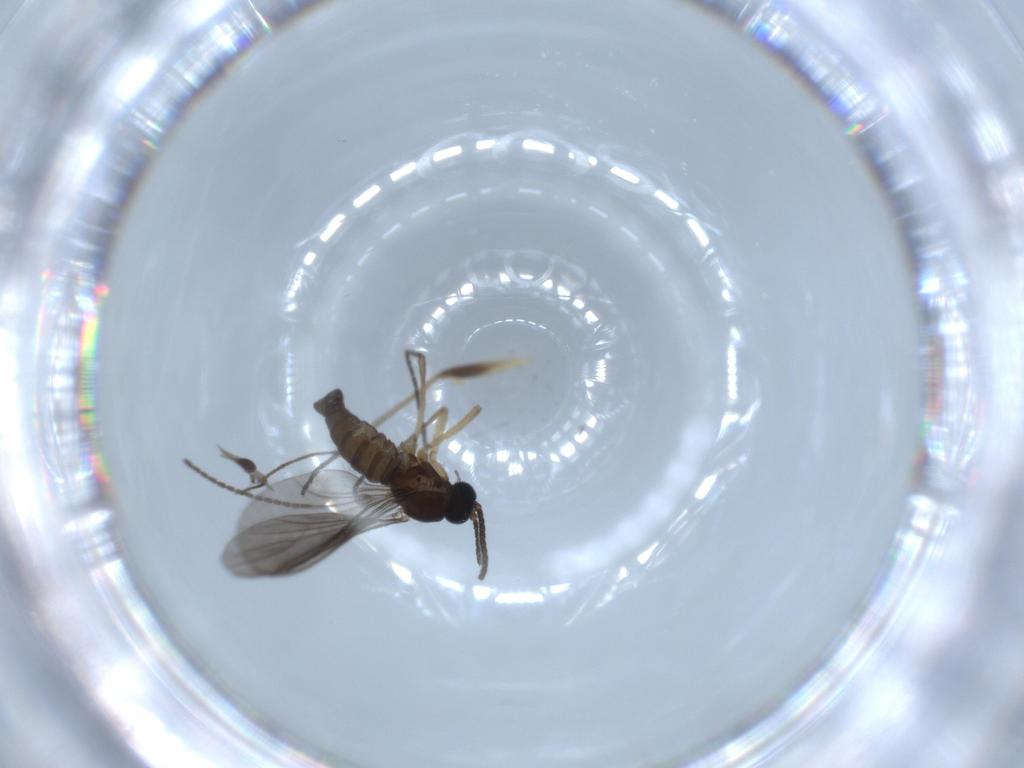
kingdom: Animalia
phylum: Arthropoda
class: Insecta
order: Diptera
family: Sciaridae
